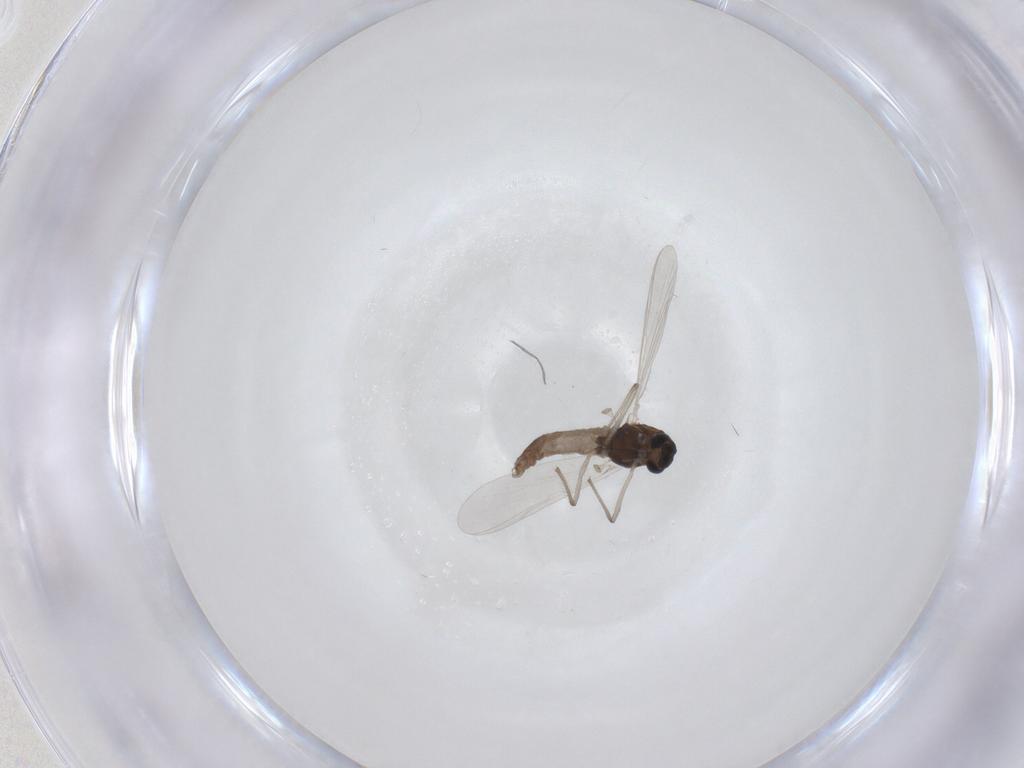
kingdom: Animalia
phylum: Arthropoda
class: Insecta
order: Diptera
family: Chironomidae
